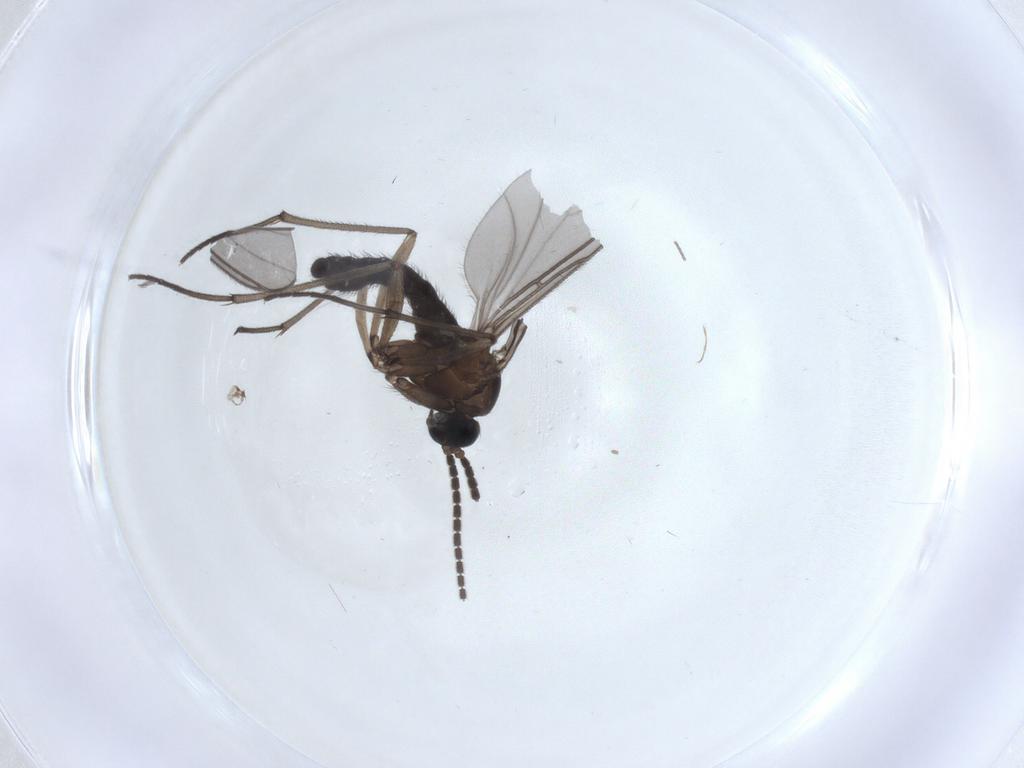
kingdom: Animalia
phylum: Arthropoda
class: Insecta
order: Diptera
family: Sciaridae
